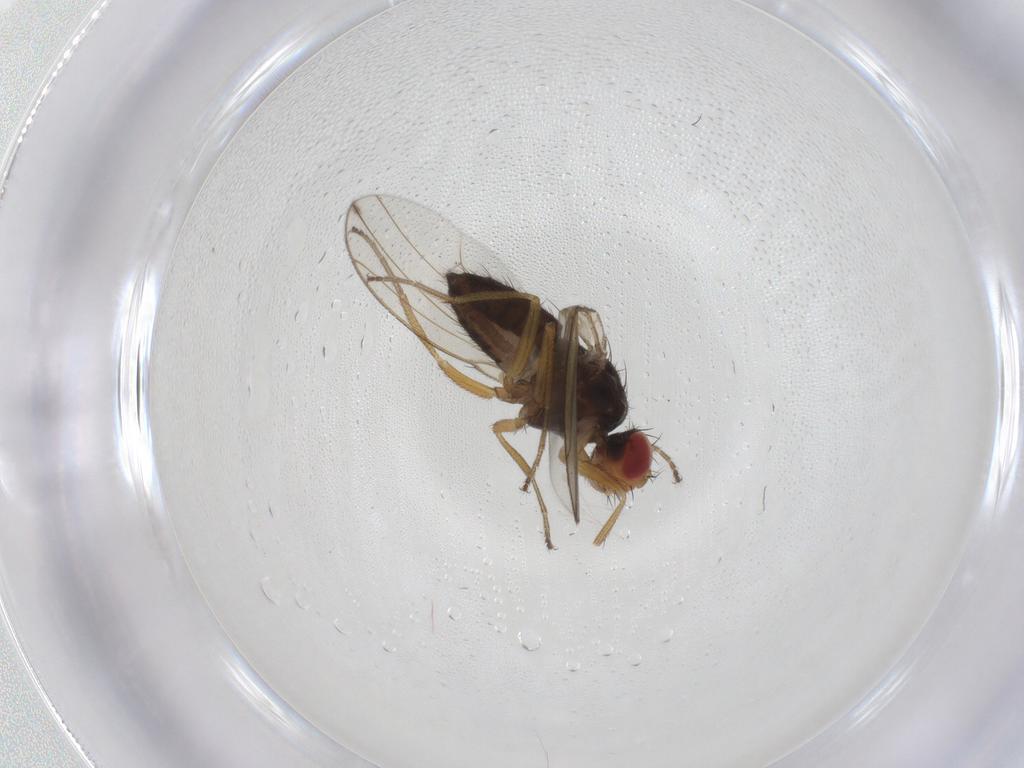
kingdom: Animalia
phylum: Arthropoda
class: Insecta
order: Diptera
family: Drosophilidae
